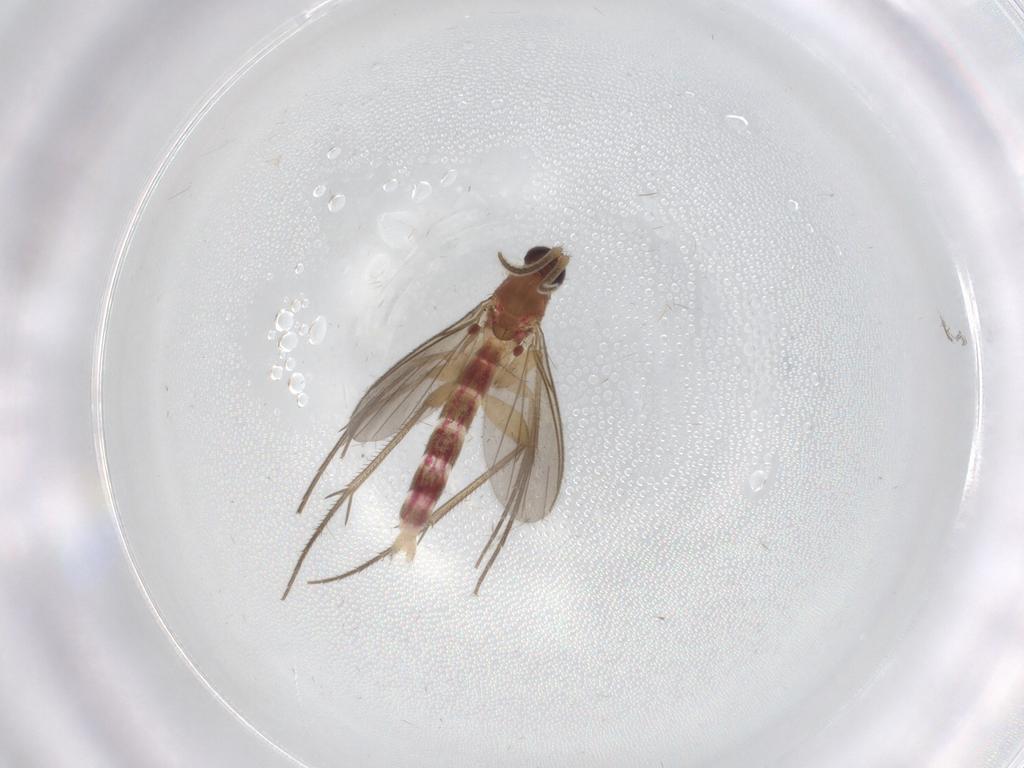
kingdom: Animalia
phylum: Arthropoda
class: Insecta
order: Diptera
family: Mycetophilidae
